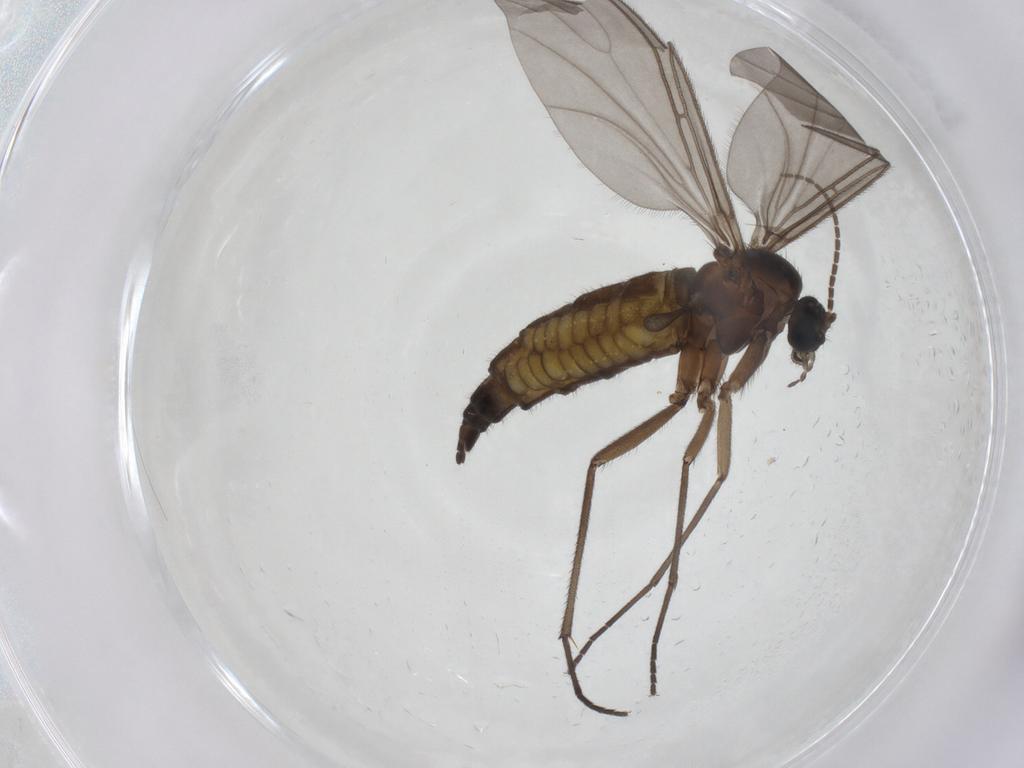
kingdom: Animalia
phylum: Arthropoda
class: Insecta
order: Diptera
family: Sciaridae
